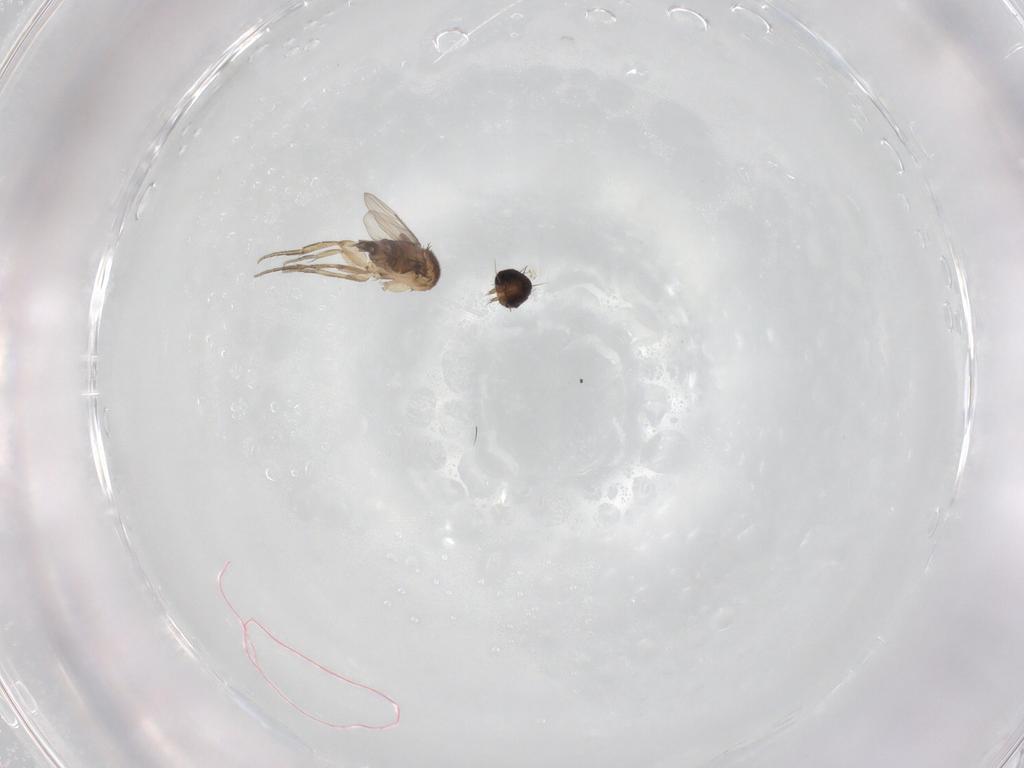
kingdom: Animalia
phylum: Arthropoda
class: Insecta
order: Diptera
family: Phoridae
